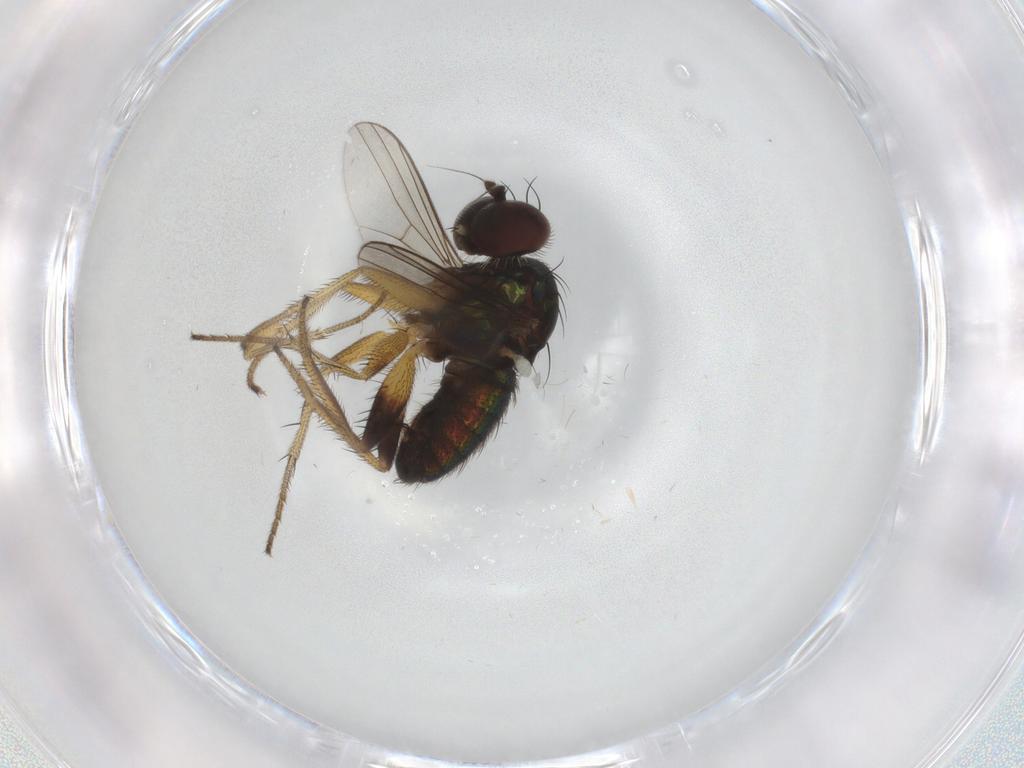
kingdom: Animalia
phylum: Arthropoda
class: Insecta
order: Diptera
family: Dolichopodidae
